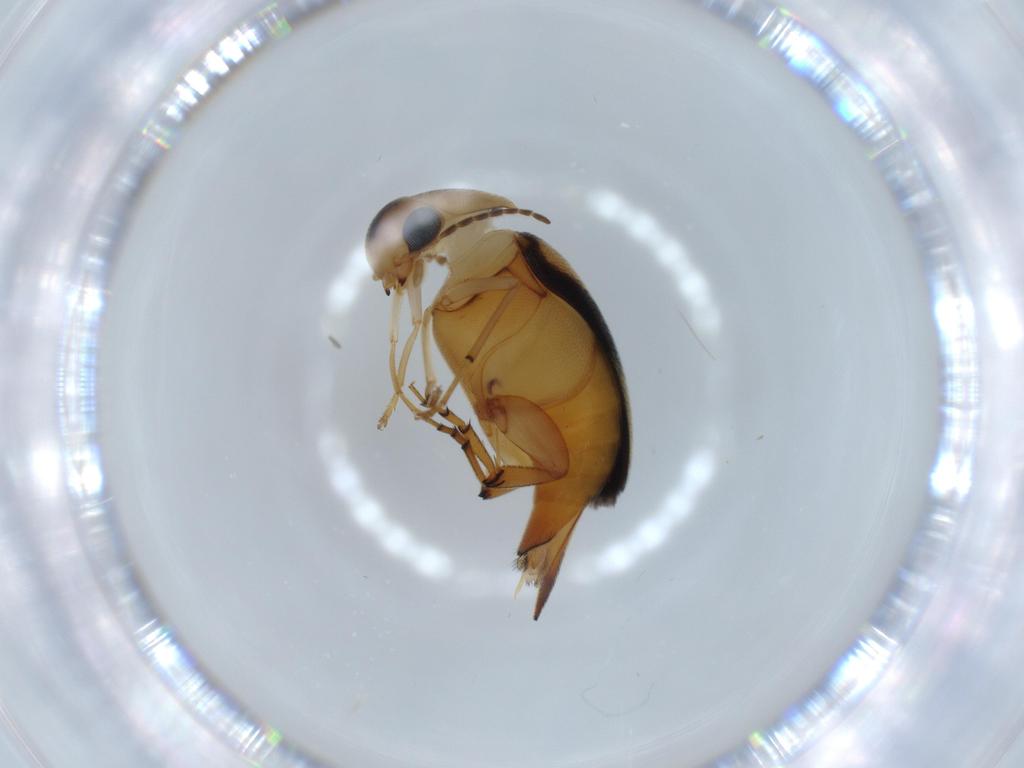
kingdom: Animalia
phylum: Arthropoda
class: Insecta
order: Coleoptera
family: Mordellidae
